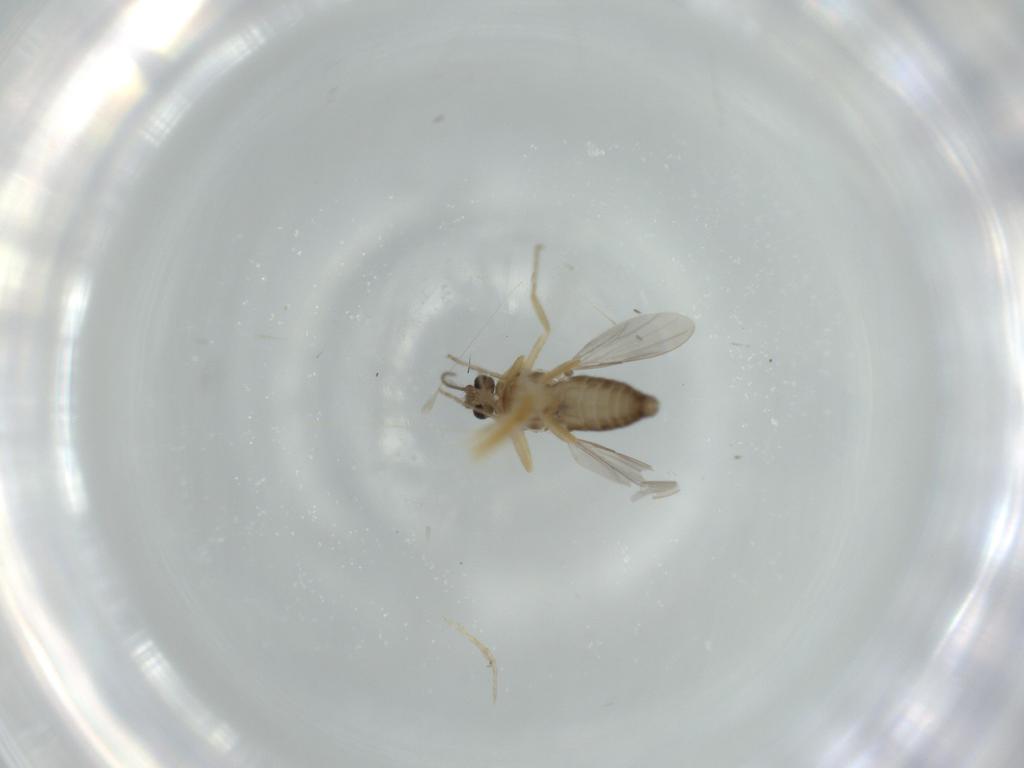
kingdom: Animalia
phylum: Arthropoda
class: Insecta
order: Diptera
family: Ceratopogonidae
